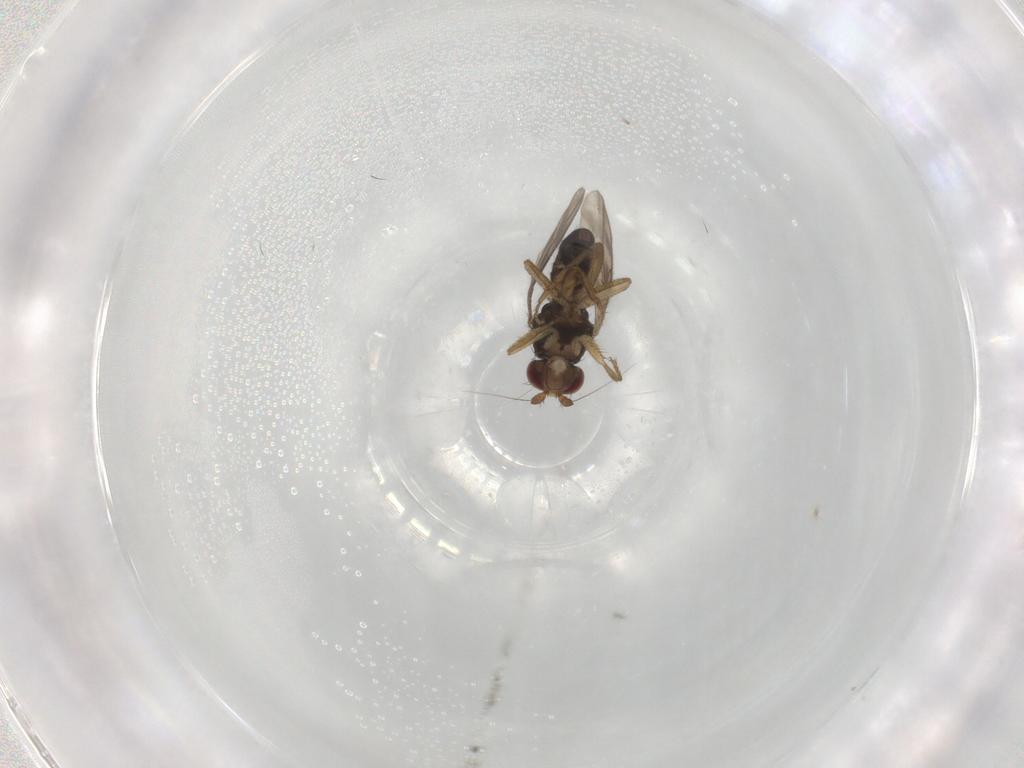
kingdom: Animalia
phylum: Arthropoda
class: Insecta
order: Diptera
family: Sphaeroceridae
